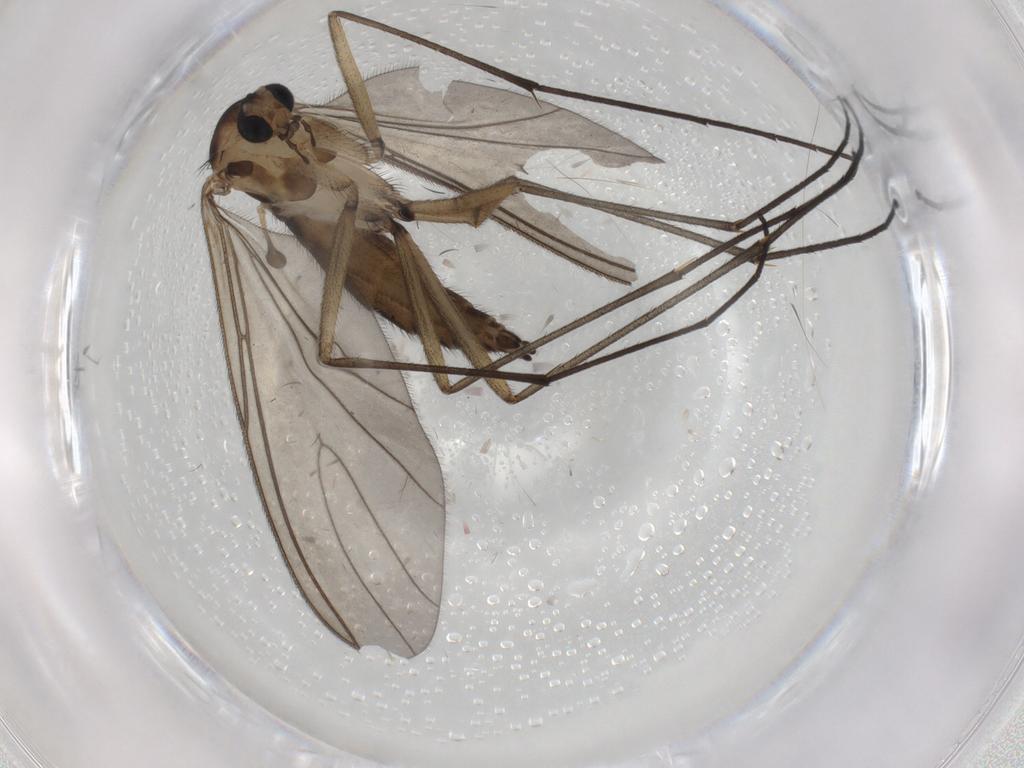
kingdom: Animalia
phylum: Arthropoda
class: Insecta
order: Diptera
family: Sciaridae
